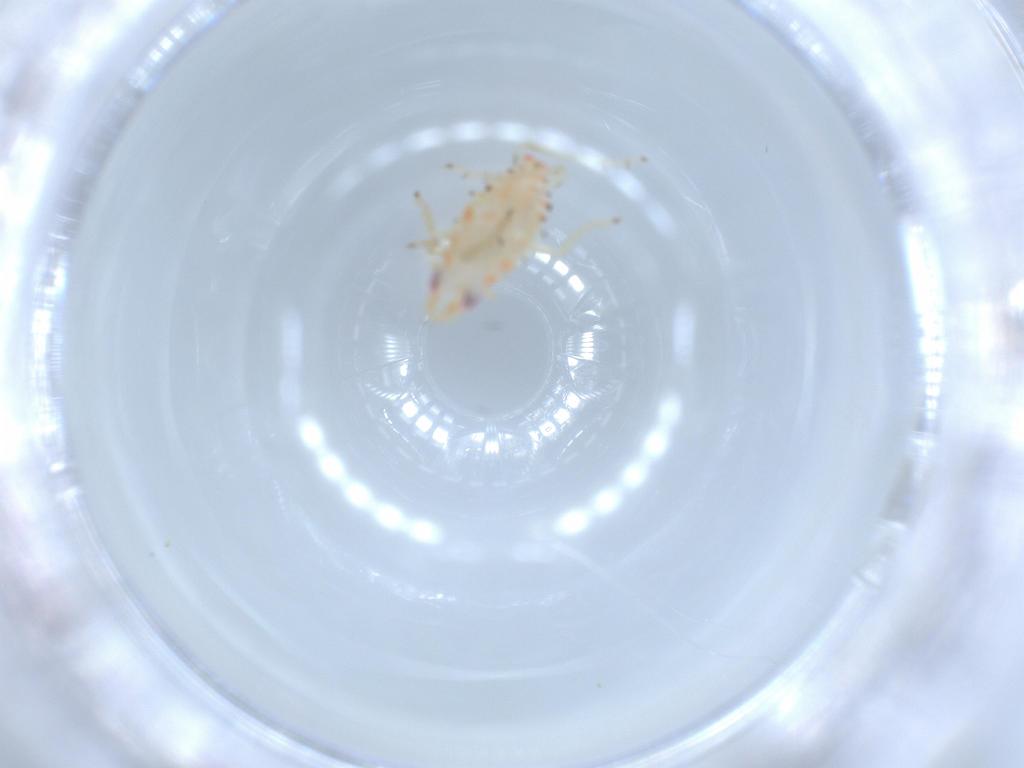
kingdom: Animalia
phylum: Arthropoda
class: Insecta
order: Hemiptera
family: Tropiduchidae
